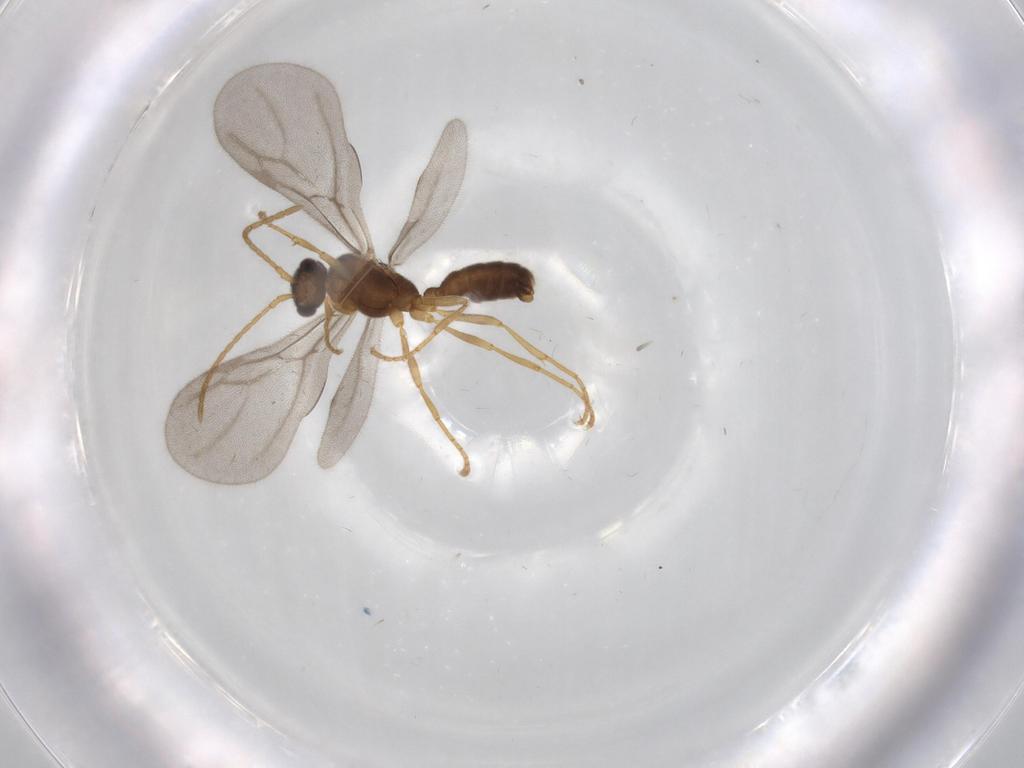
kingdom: Animalia
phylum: Arthropoda
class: Insecta
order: Hymenoptera
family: Formicidae
